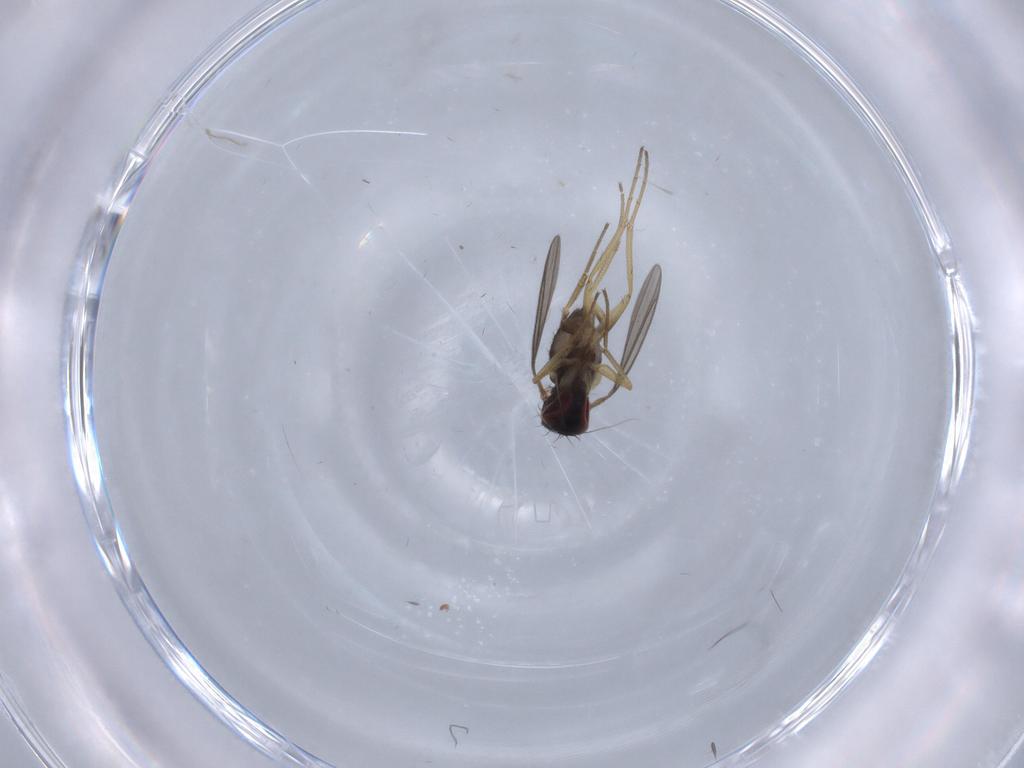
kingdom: Animalia
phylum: Arthropoda
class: Insecta
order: Diptera
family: Dolichopodidae
